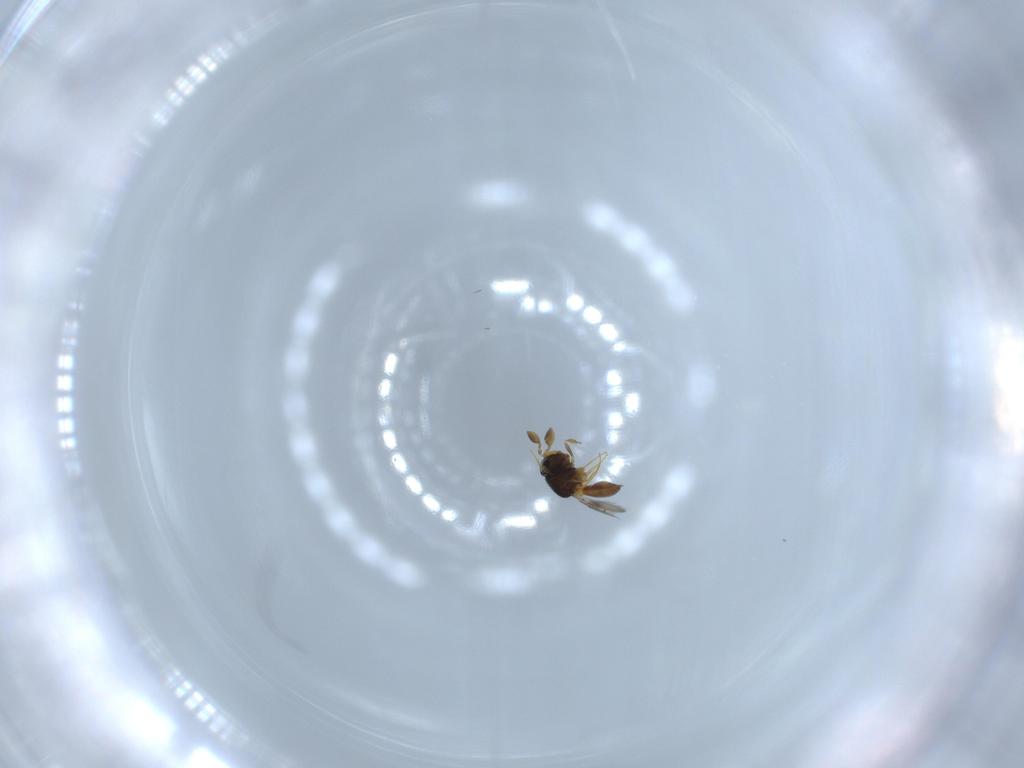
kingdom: Animalia
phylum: Arthropoda
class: Insecta
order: Hymenoptera
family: Scelionidae
